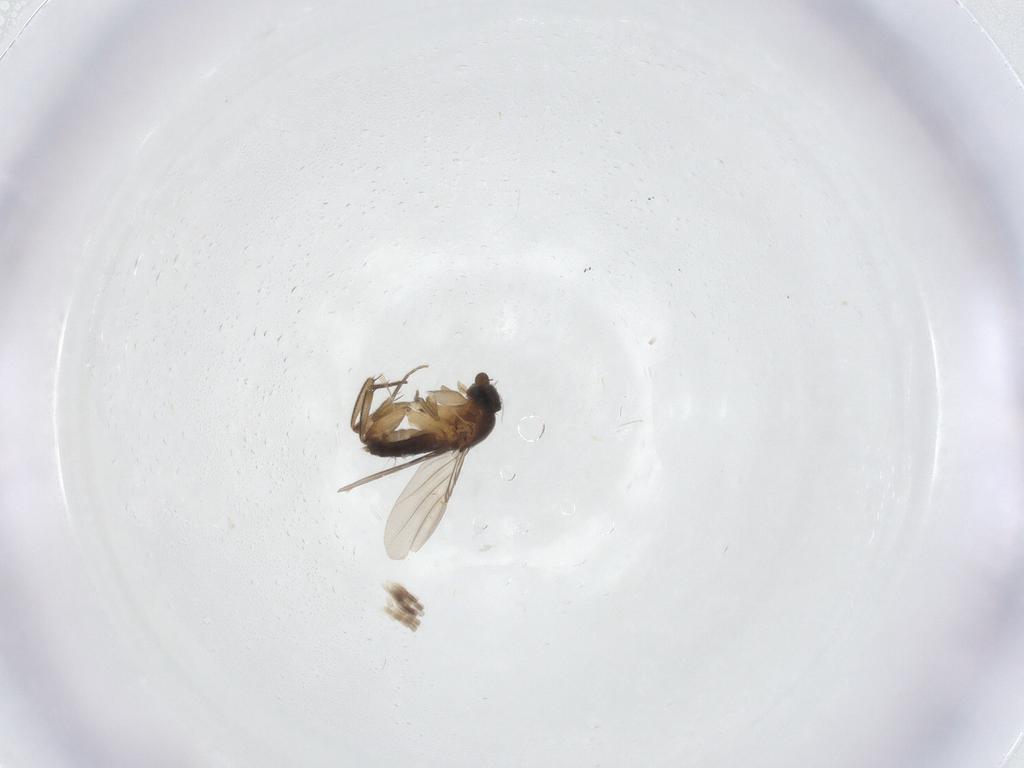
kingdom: Animalia
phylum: Arthropoda
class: Insecta
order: Diptera
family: Phoridae
